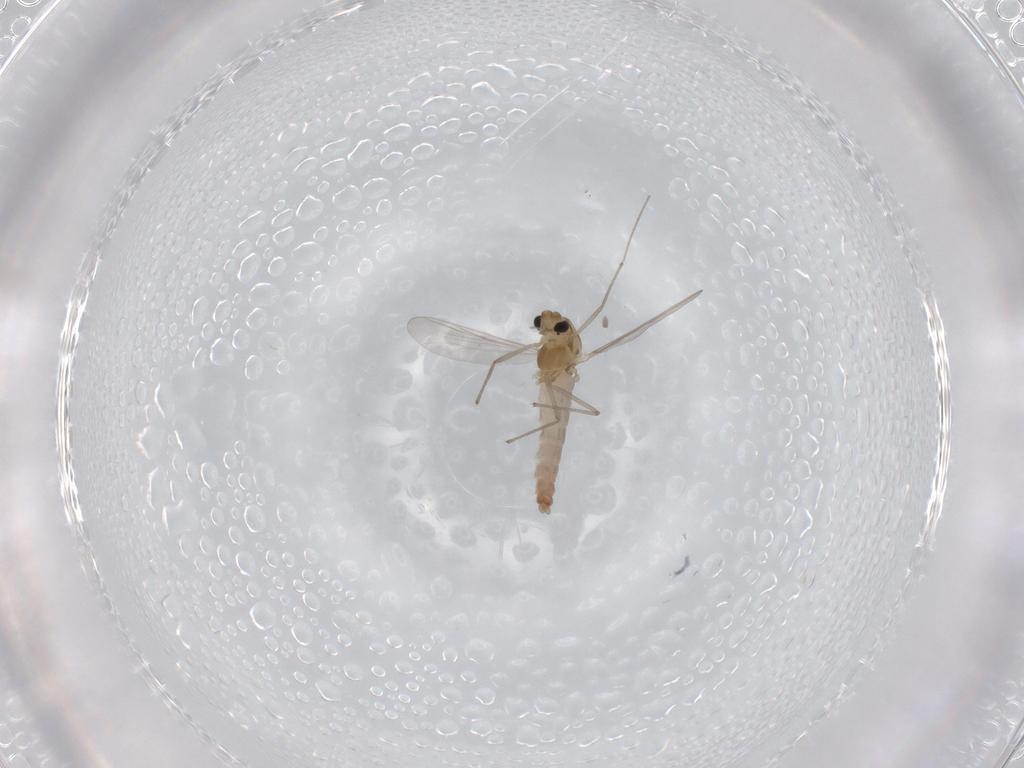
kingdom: Animalia
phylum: Arthropoda
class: Insecta
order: Diptera
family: Chironomidae
